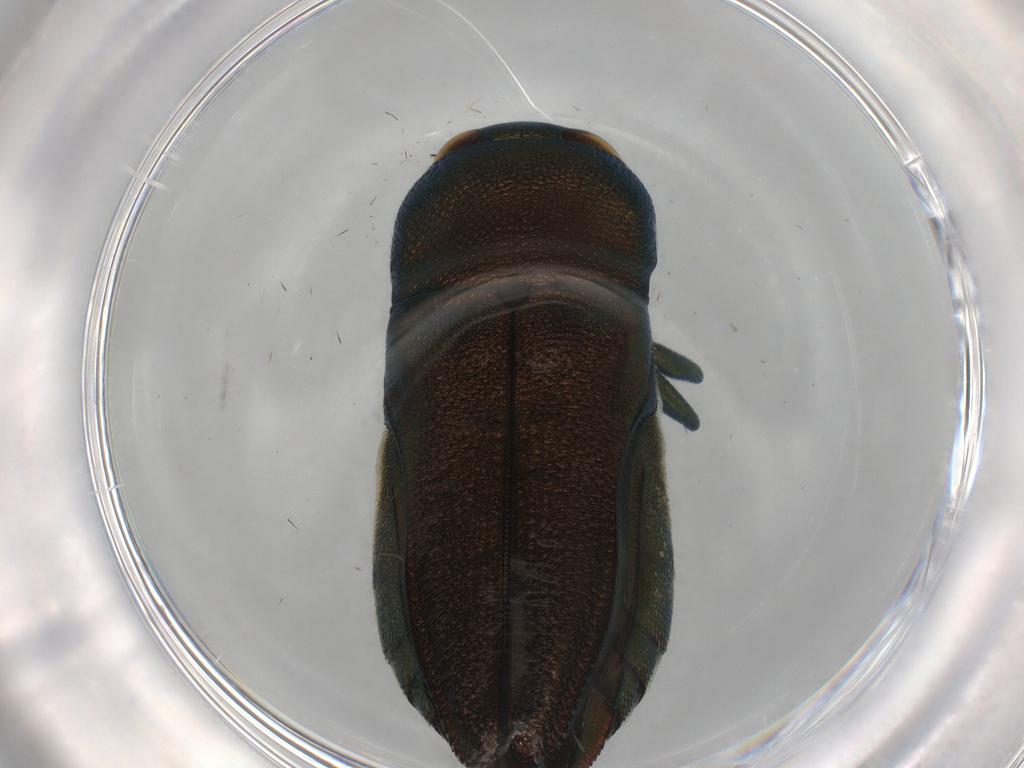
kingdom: Animalia
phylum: Arthropoda
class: Insecta
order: Coleoptera
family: Buprestidae
